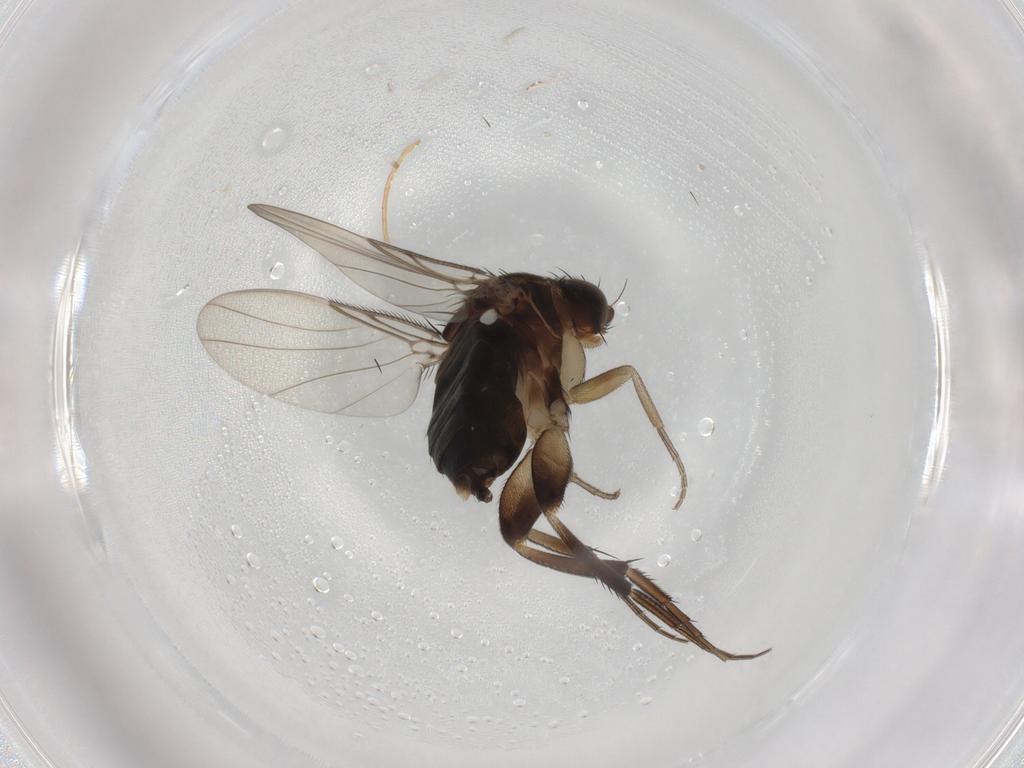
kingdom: Animalia
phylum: Arthropoda
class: Insecta
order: Diptera
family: Phoridae
